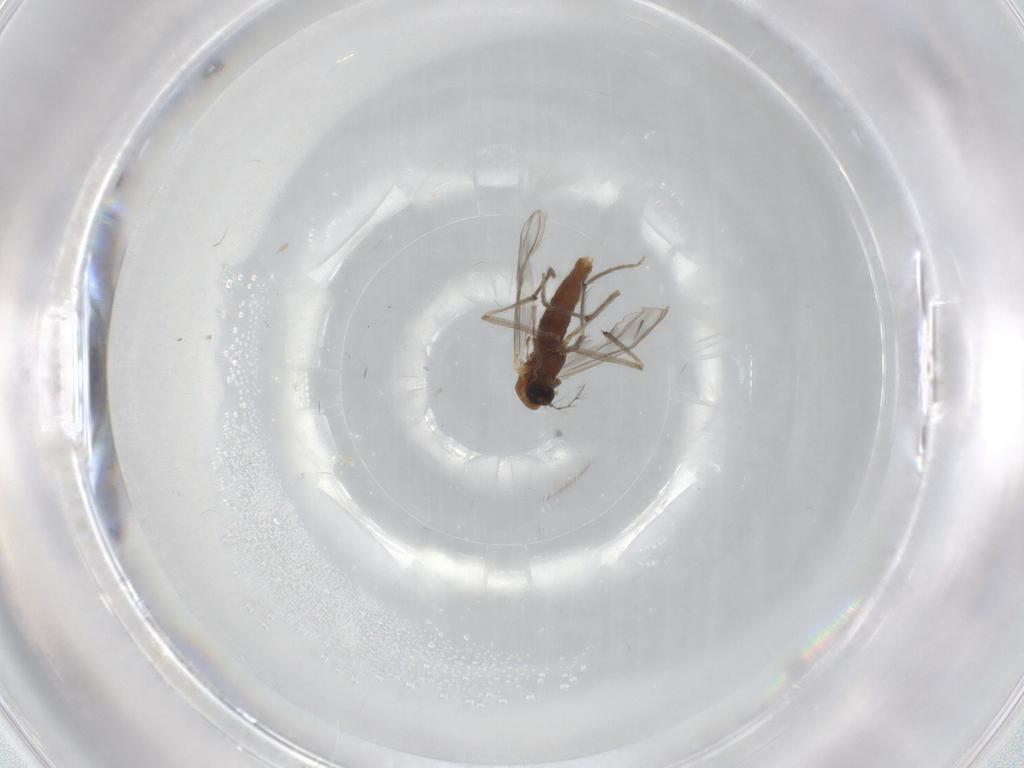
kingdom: Animalia
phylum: Arthropoda
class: Insecta
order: Diptera
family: Chironomidae
